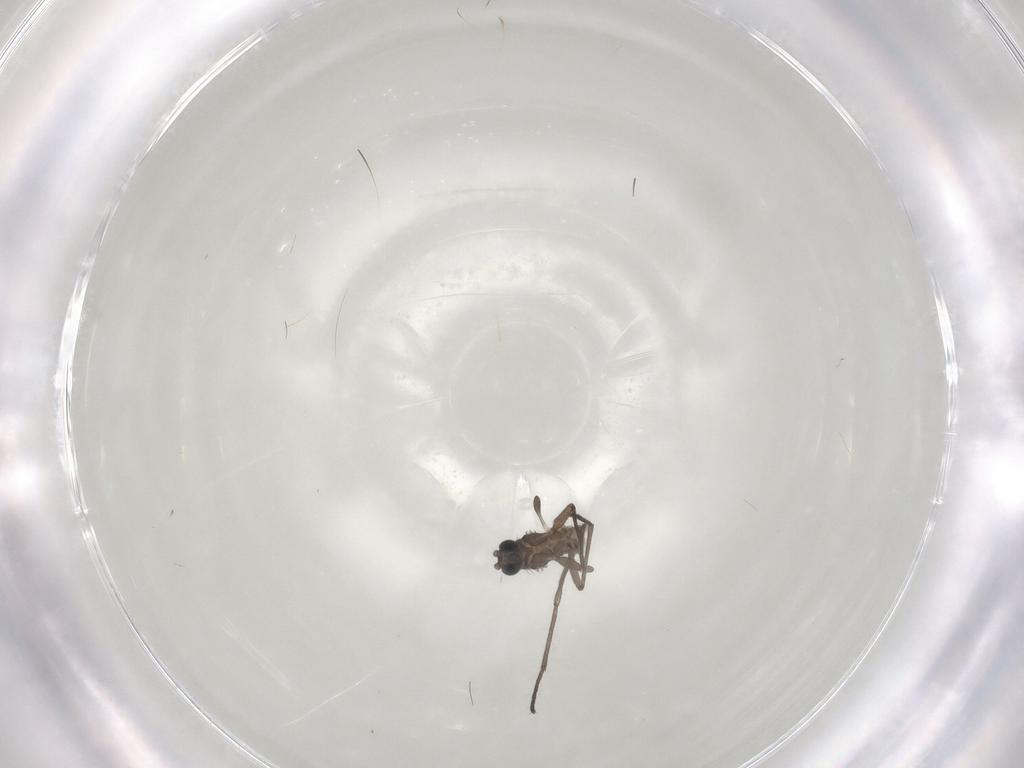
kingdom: Animalia
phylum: Arthropoda
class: Insecta
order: Diptera
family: Sciaridae
